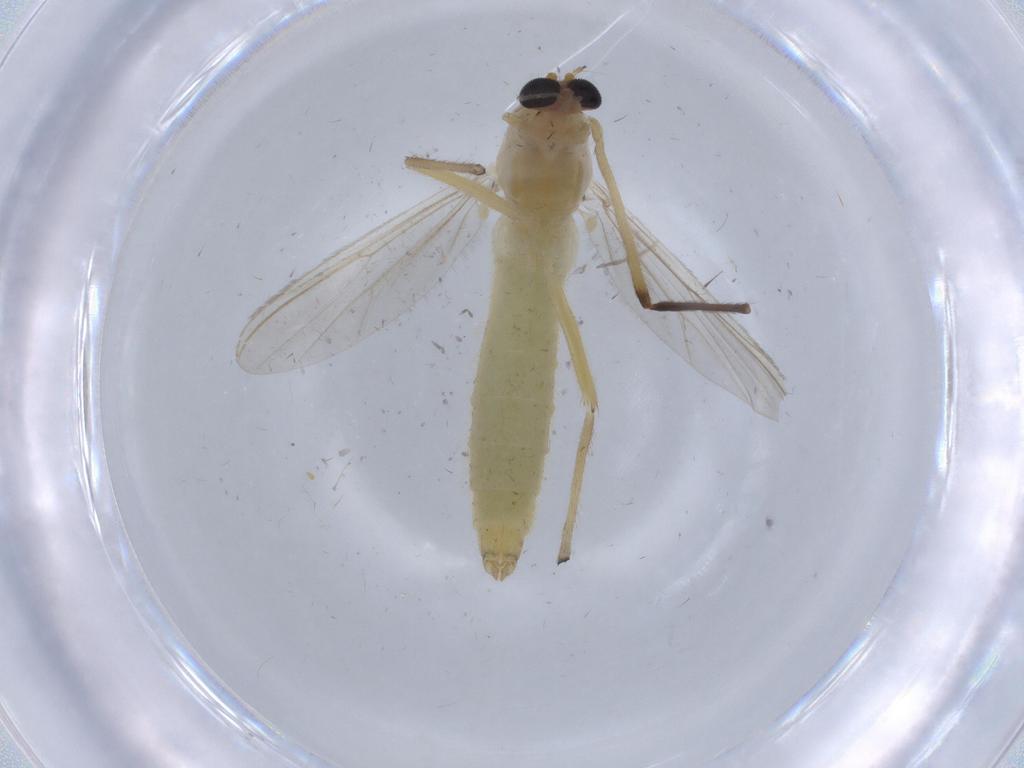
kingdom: Animalia
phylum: Arthropoda
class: Insecta
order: Diptera
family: Chironomidae
